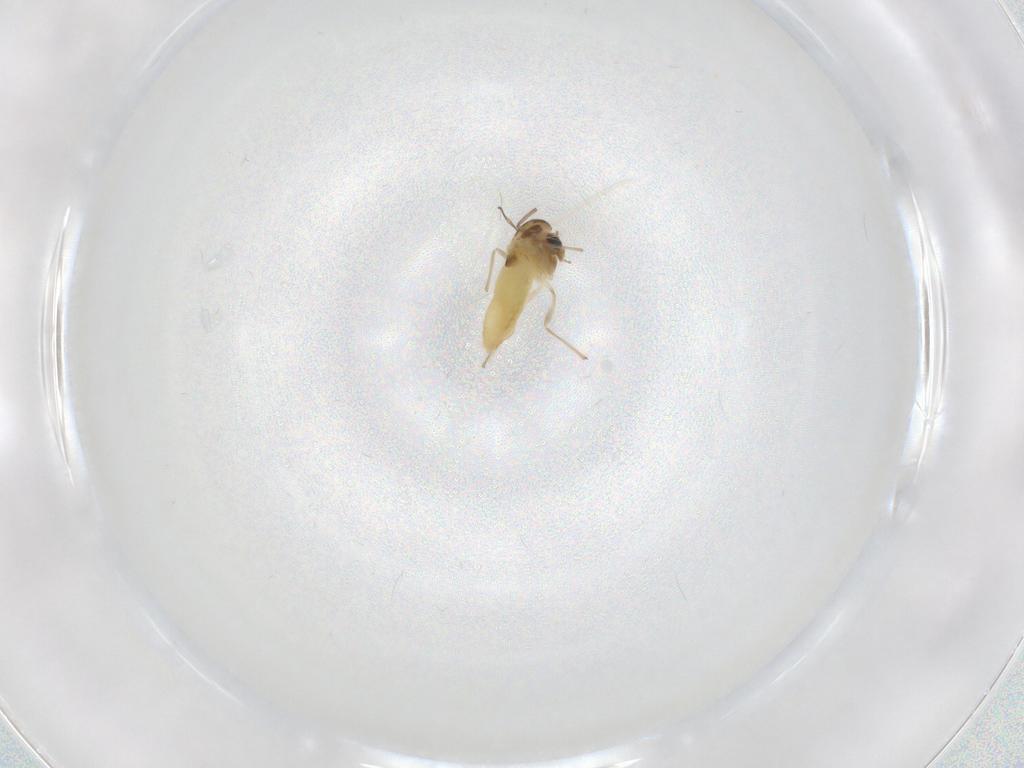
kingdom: Animalia
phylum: Arthropoda
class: Insecta
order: Diptera
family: Chironomidae
